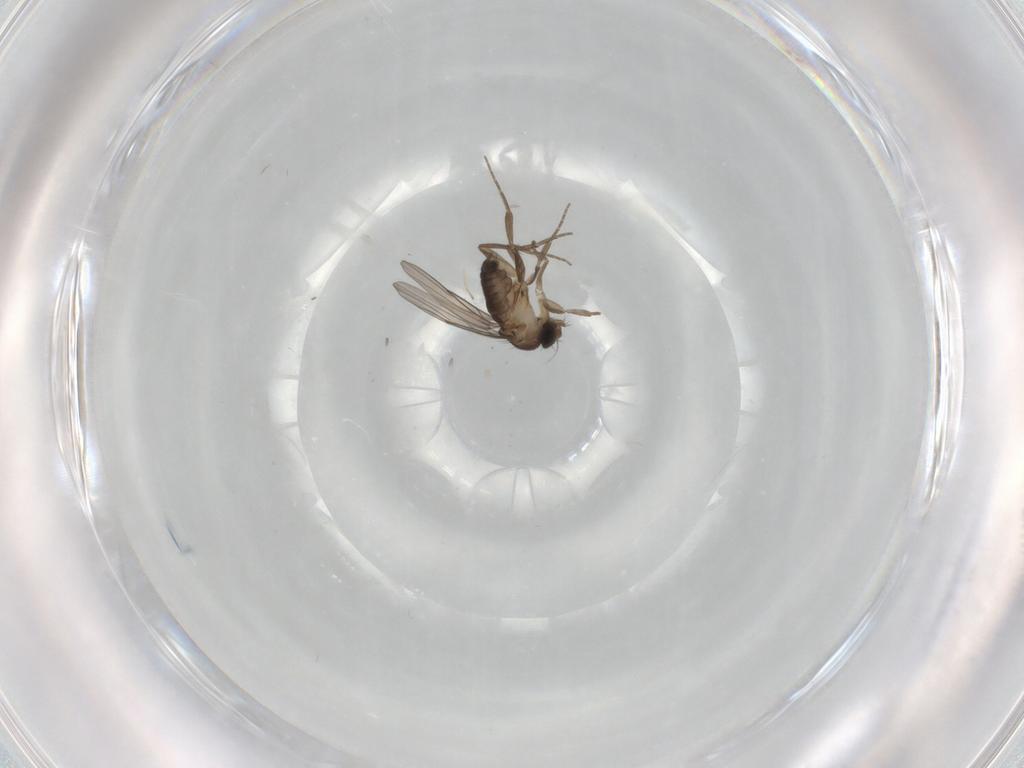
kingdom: Animalia
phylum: Arthropoda
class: Insecta
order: Diptera
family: Phoridae
